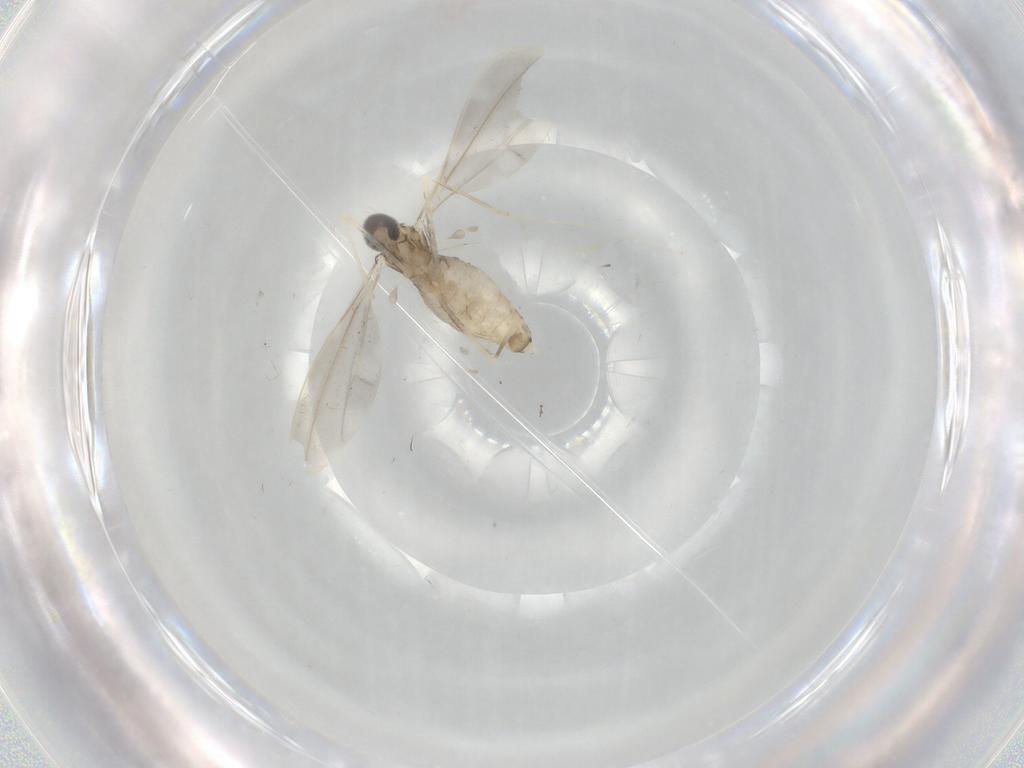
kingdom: Animalia
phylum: Arthropoda
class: Insecta
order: Diptera
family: Cecidomyiidae
